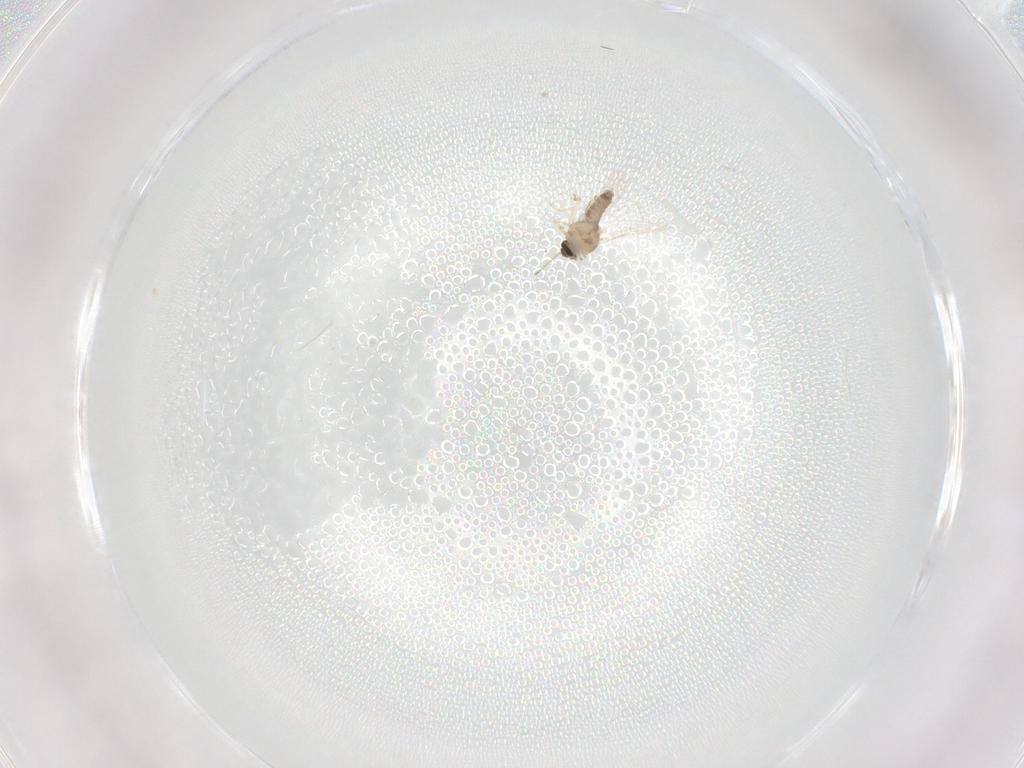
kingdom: Animalia
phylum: Arthropoda
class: Insecta
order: Diptera
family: Ceratopogonidae
